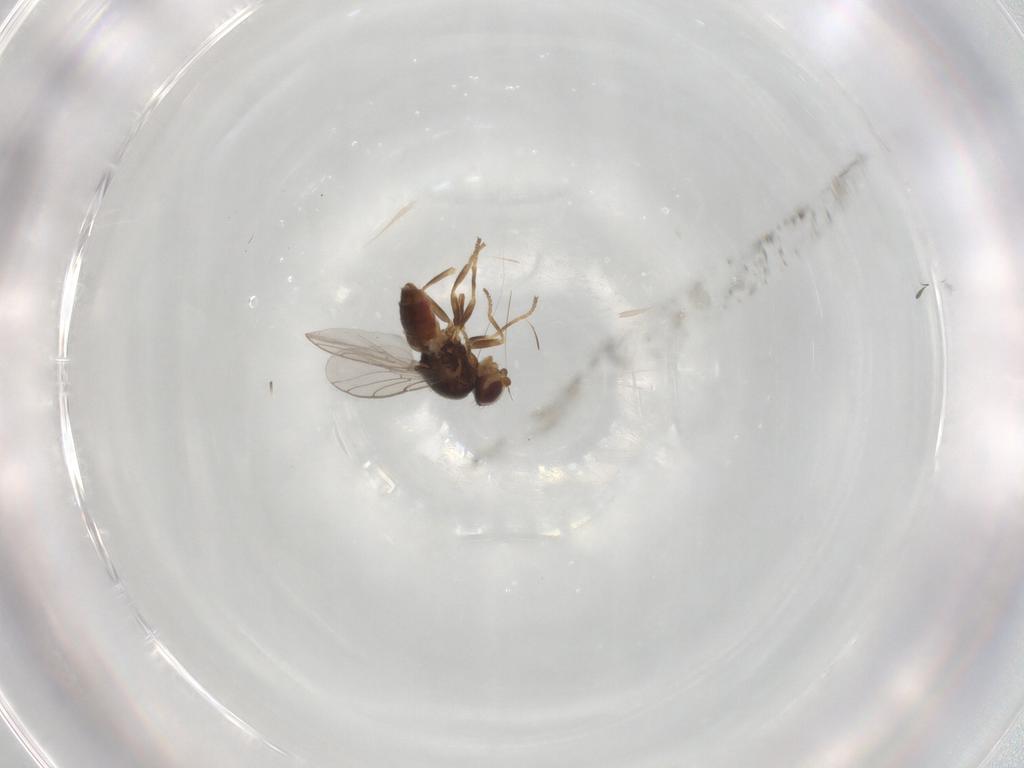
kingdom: Animalia
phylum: Arthropoda
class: Insecta
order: Diptera
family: Chloropidae
